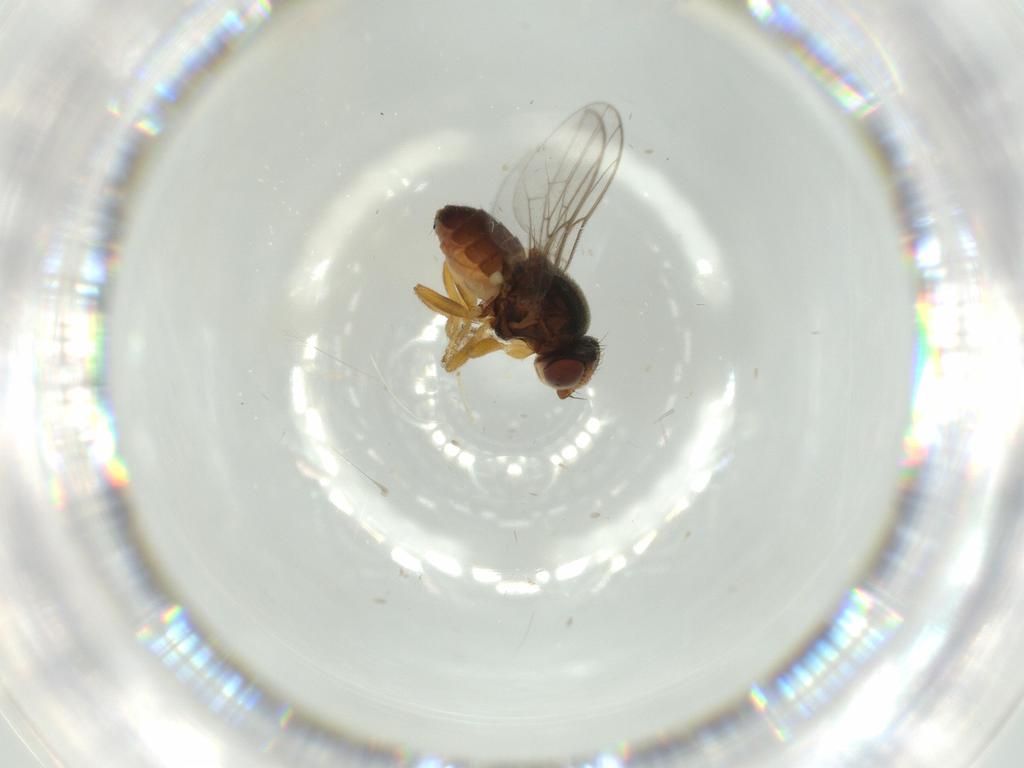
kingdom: Animalia
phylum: Arthropoda
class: Insecta
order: Diptera
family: Chloropidae
